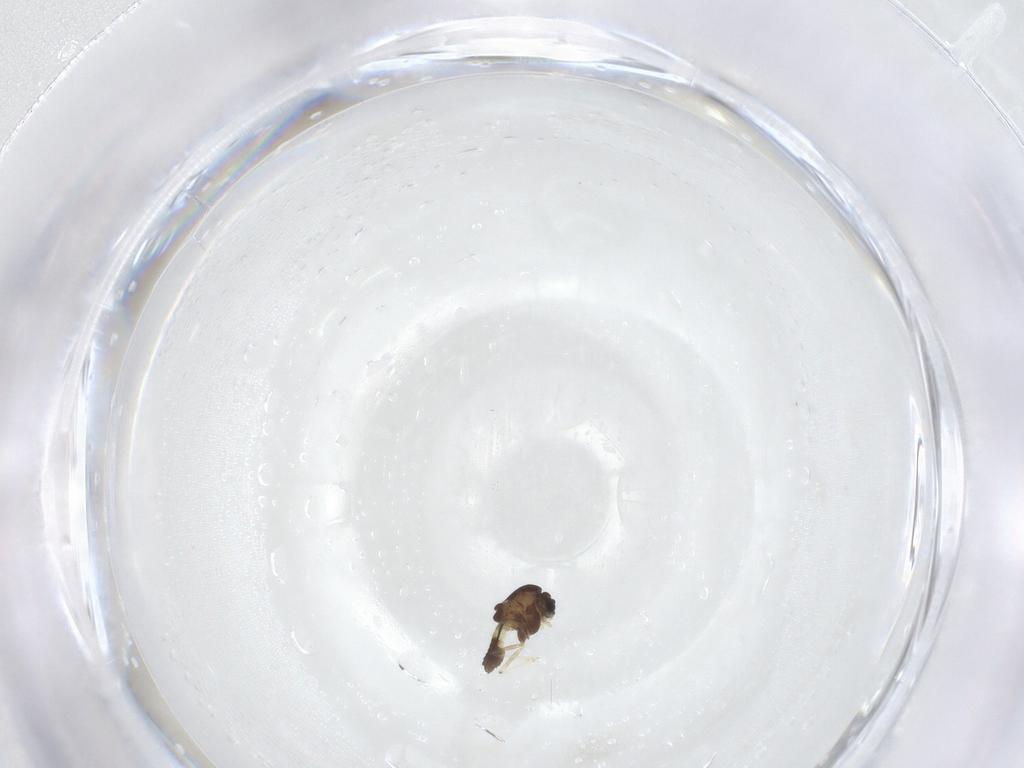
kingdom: Animalia
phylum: Arthropoda
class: Insecta
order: Diptera
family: Chironomidae
